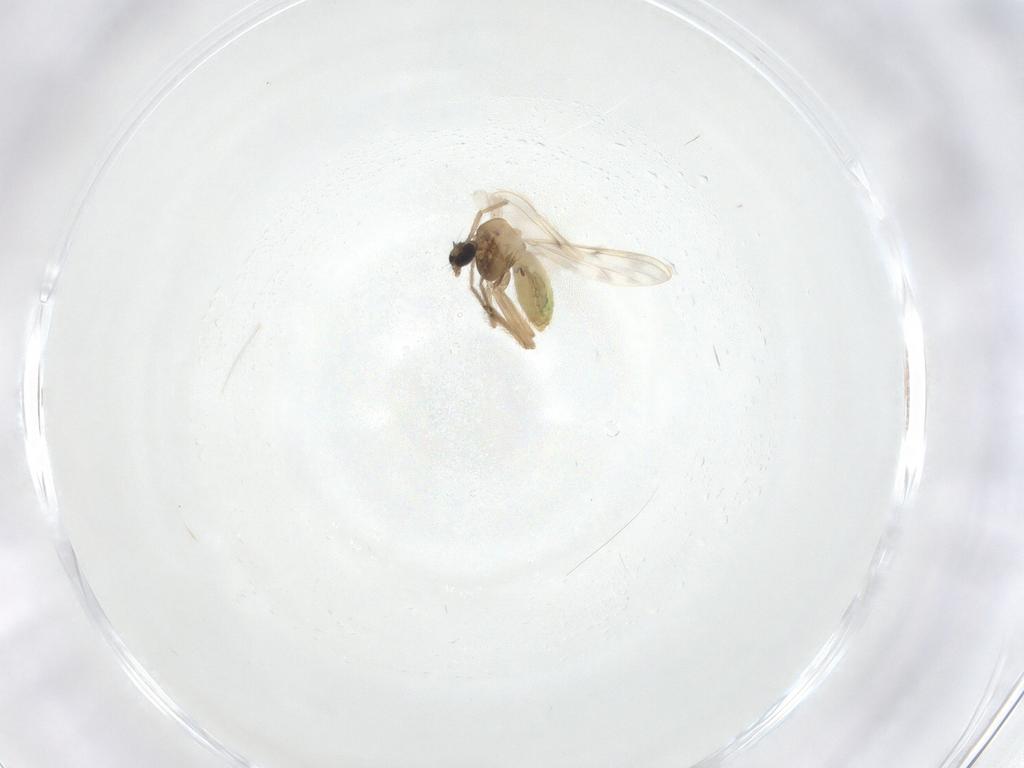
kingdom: Animalia
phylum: Arthropoda
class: Insecta
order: Diptera
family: Chironomidae
